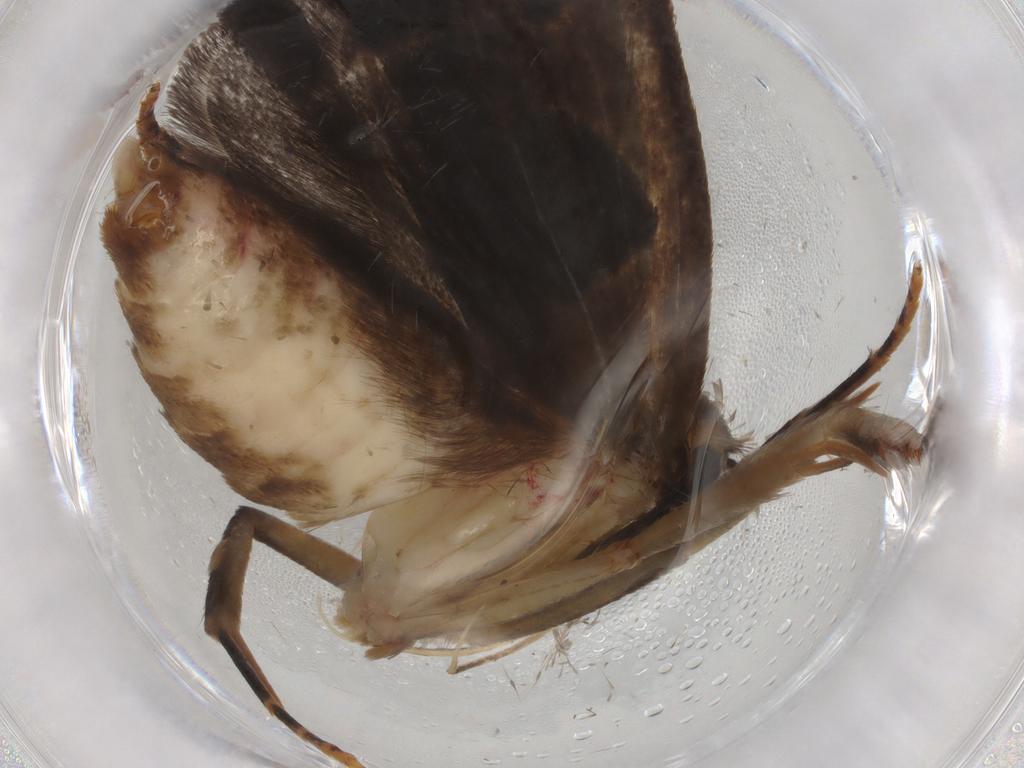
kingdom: Animalia
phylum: Arthropoda
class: Insecta
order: Lepidoptera
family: Gelechiidae
